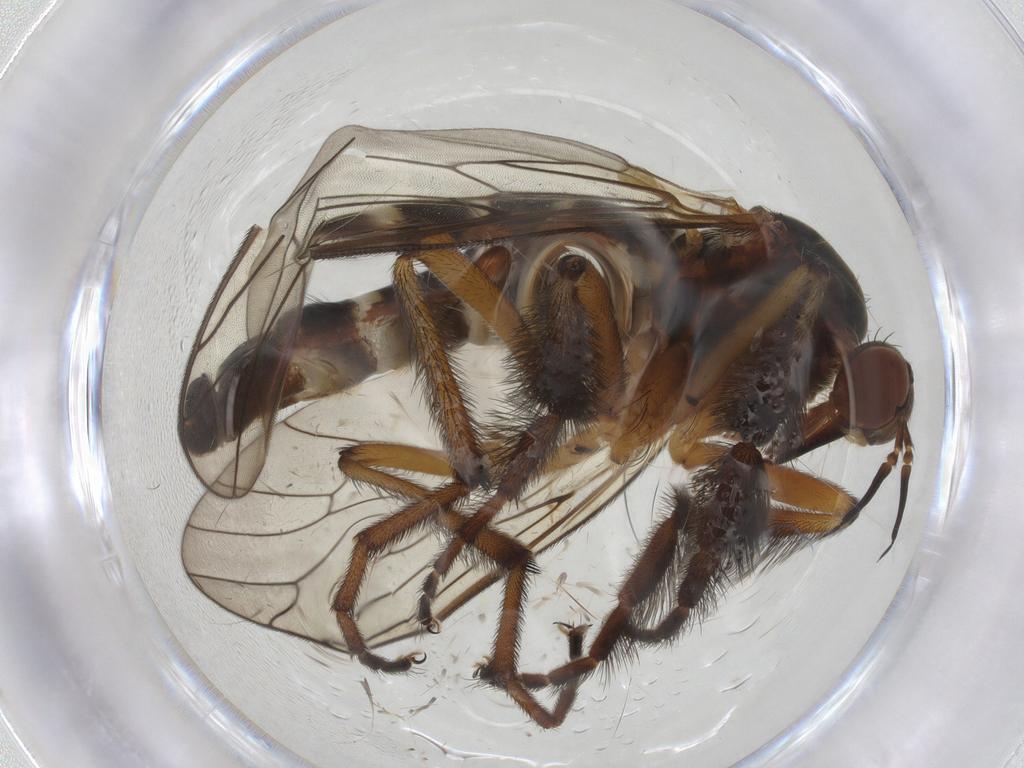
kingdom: Animalia
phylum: Arthropoda
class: Insecta
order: Diptera
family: Empididae
